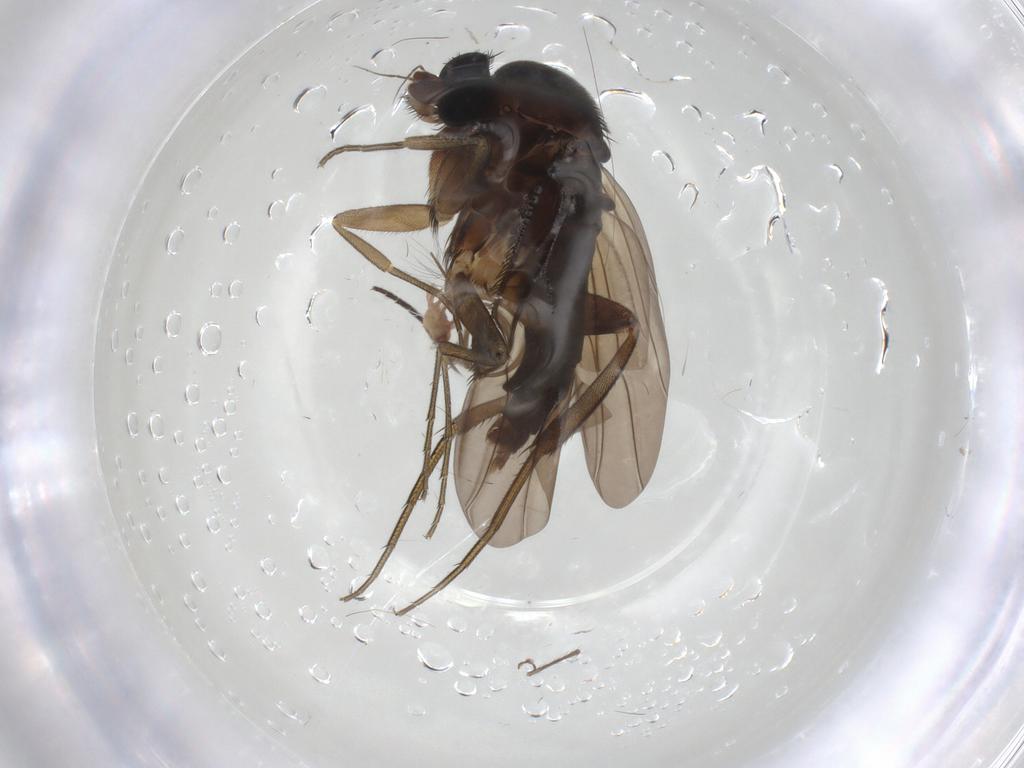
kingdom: Animalia
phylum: Arthropoda
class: Insecta
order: Diptera
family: Phoridae
